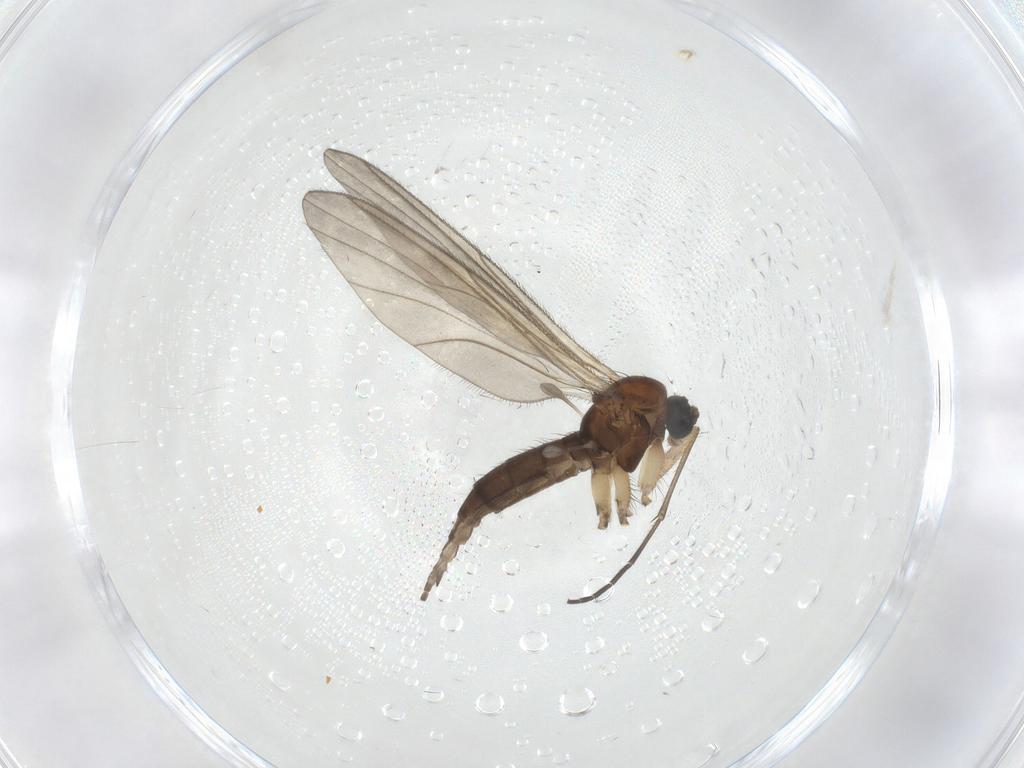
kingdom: Animalia
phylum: Arthropoda
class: Insecta
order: Diptera
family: Sciaridae
